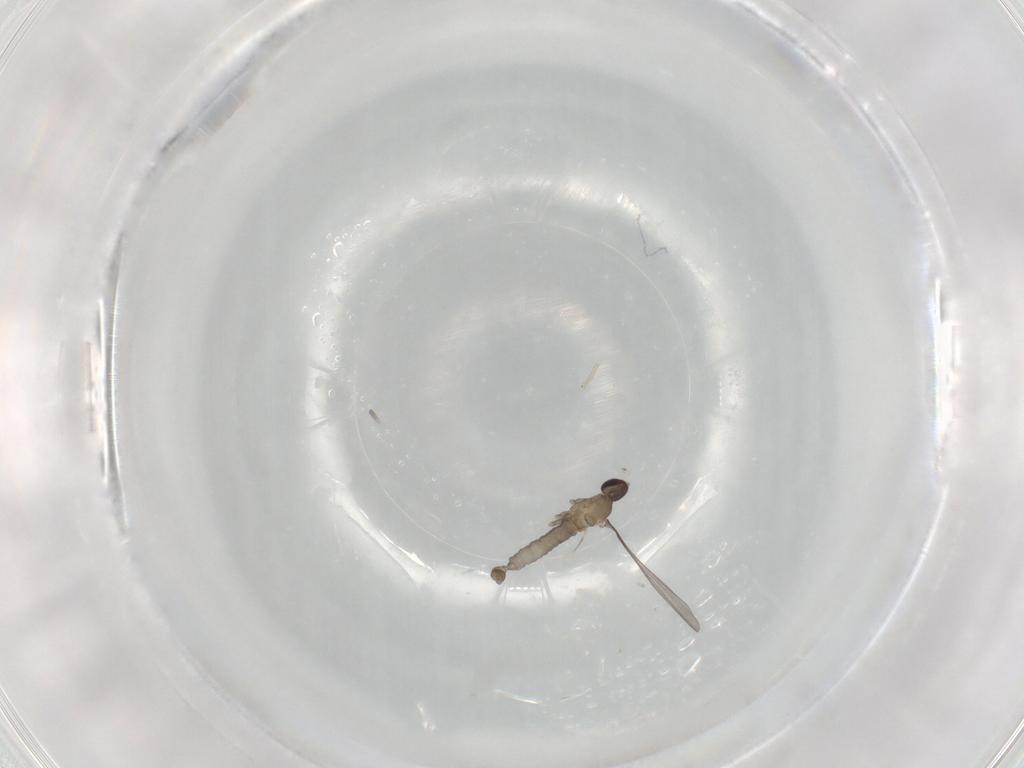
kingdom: Animalia
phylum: Arthropoda
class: Insecta
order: Diptera
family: Cecidomyiidae
